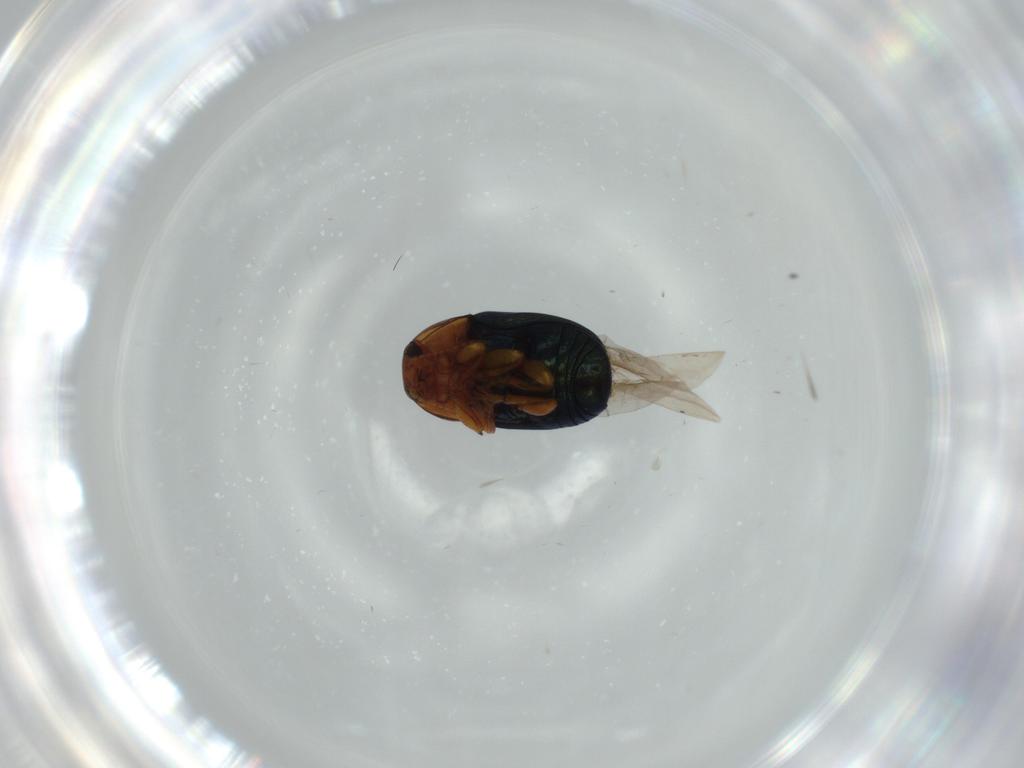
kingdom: Animalia
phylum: Arthropoda
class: Insecta
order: Coleoptera
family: Chrysomelidae
